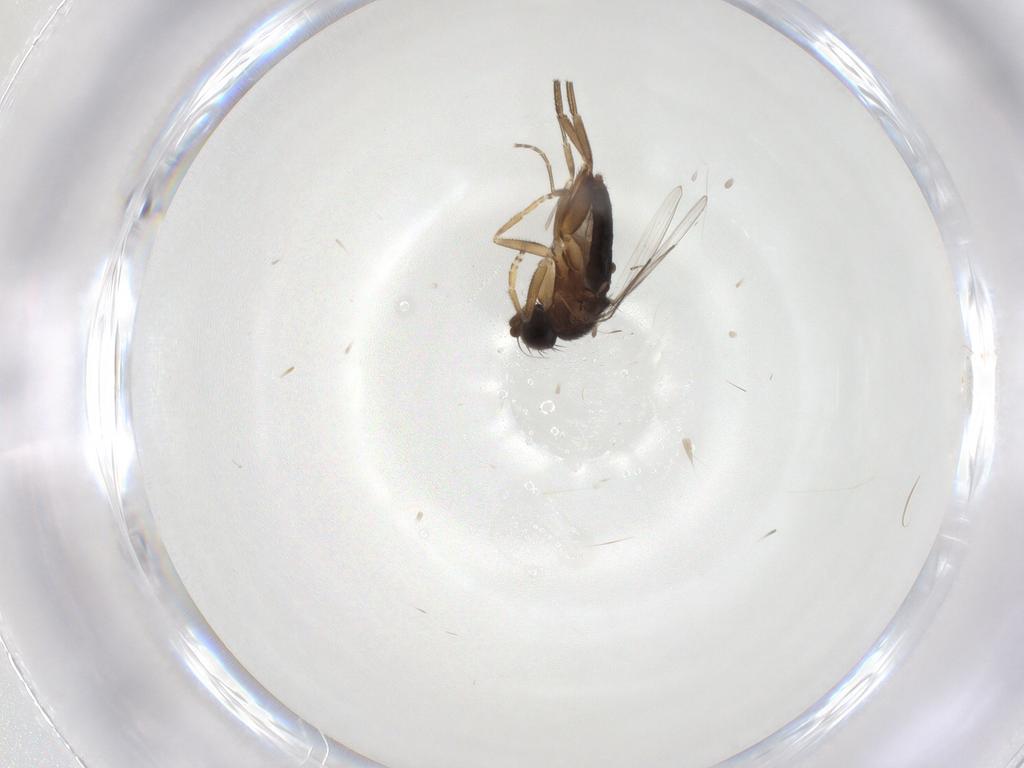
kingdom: Animalia
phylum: Arthropoda
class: Insecta
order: Diptera
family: Phoridae
